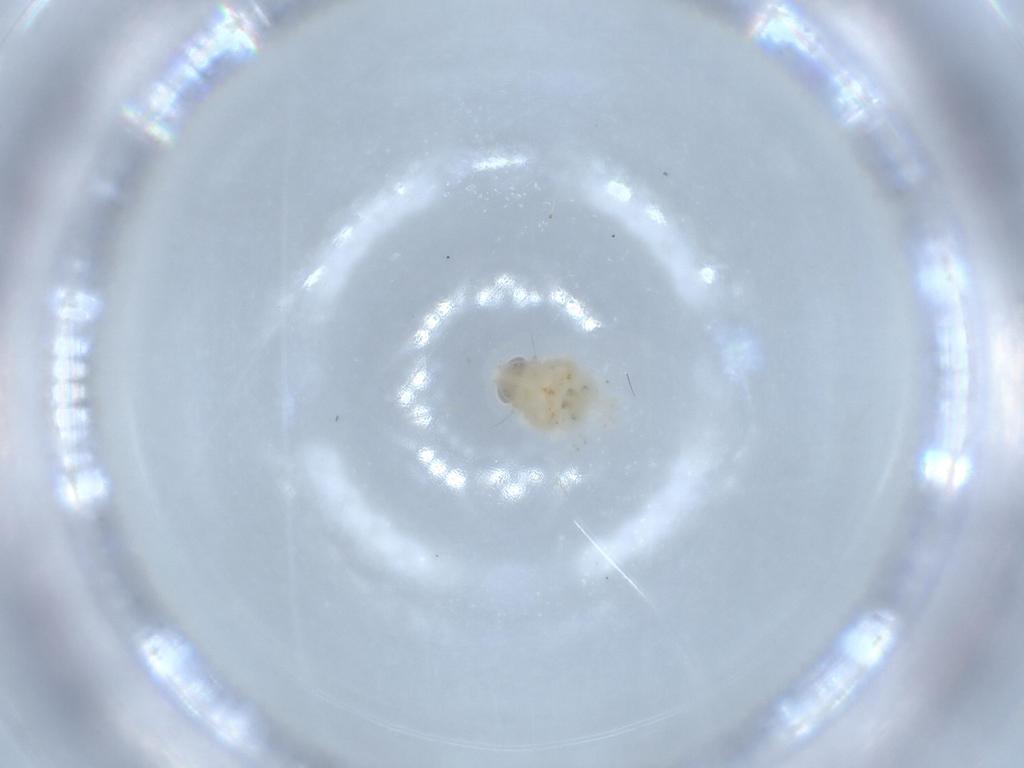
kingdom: Animalia
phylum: Arthropoda
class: Insecta
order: Hemiptera
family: Nogodinidae
